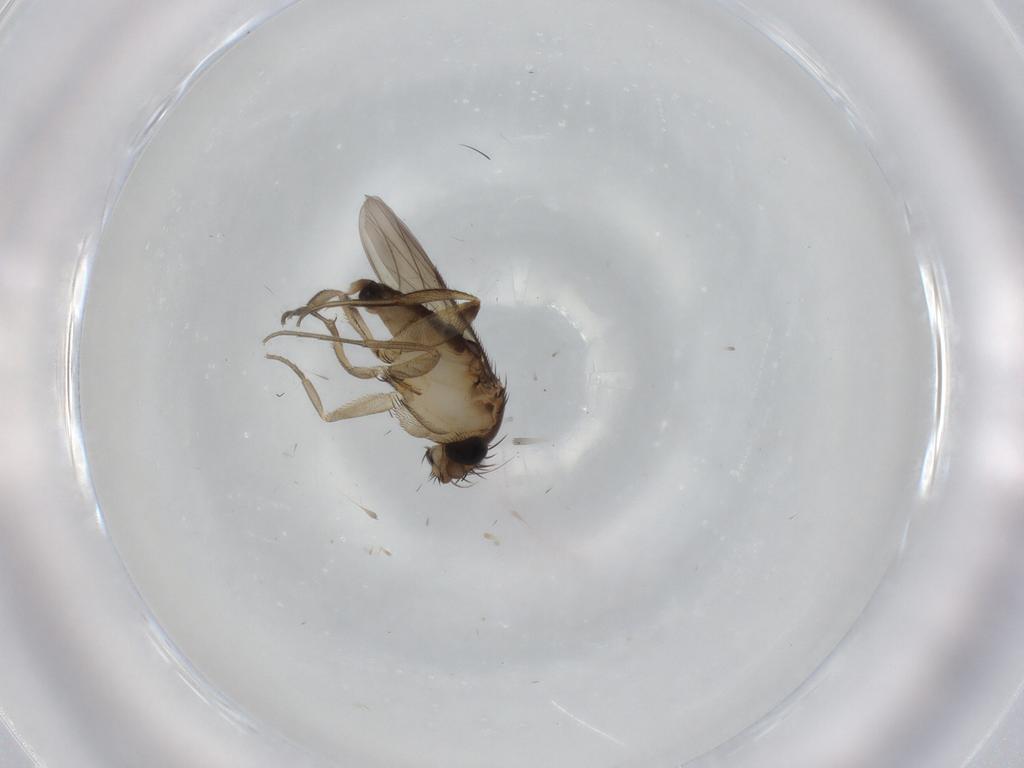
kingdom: Animalia
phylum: Arthropoda
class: Insecta
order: Diptera
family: Phoridae
